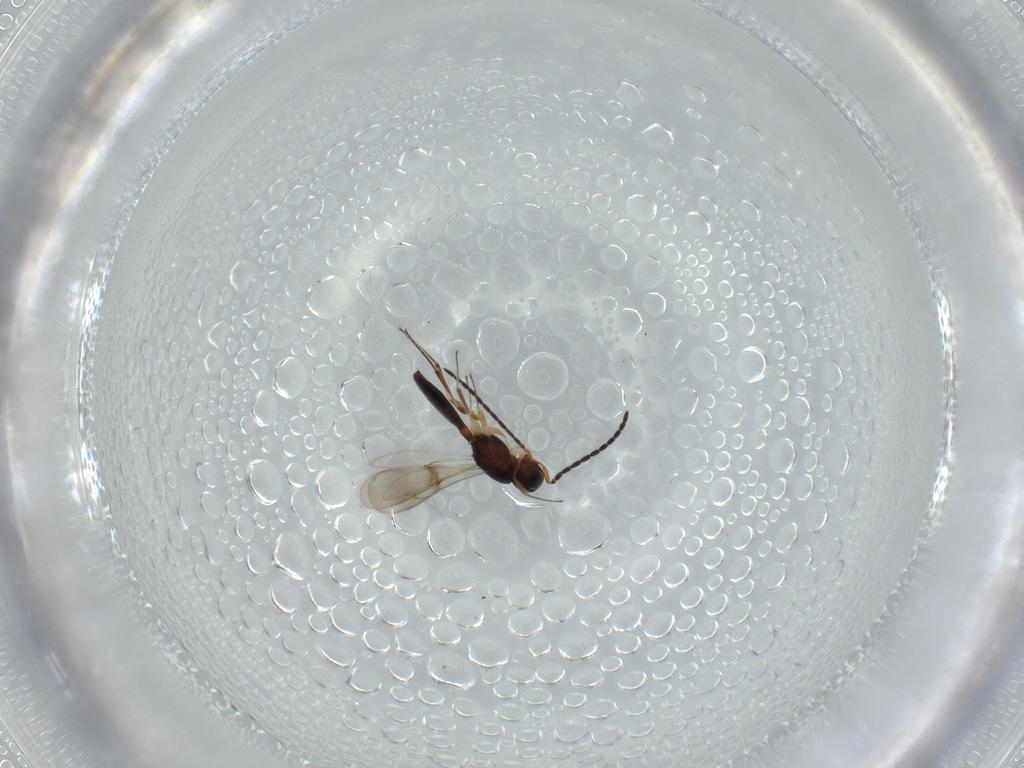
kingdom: Animalia
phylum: Arthropoda
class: Insecta
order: Hymenoptera
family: Scelionidae
